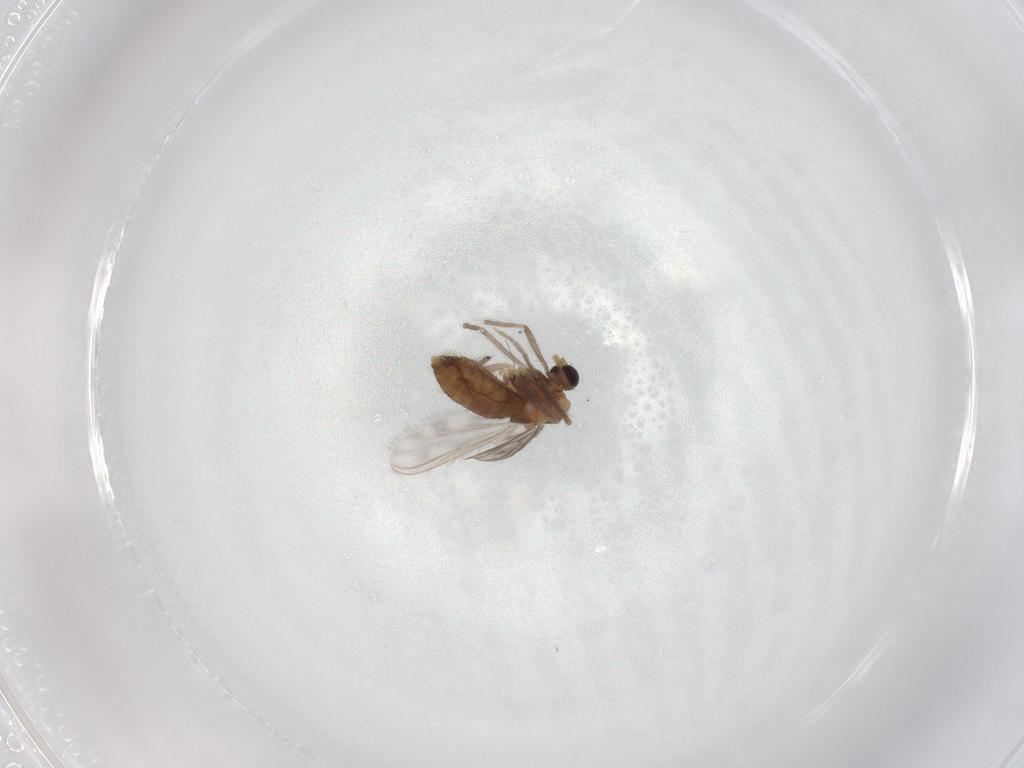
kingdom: Animalia
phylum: Arthropoda
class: Insecta
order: Diptera
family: Chironomidae
